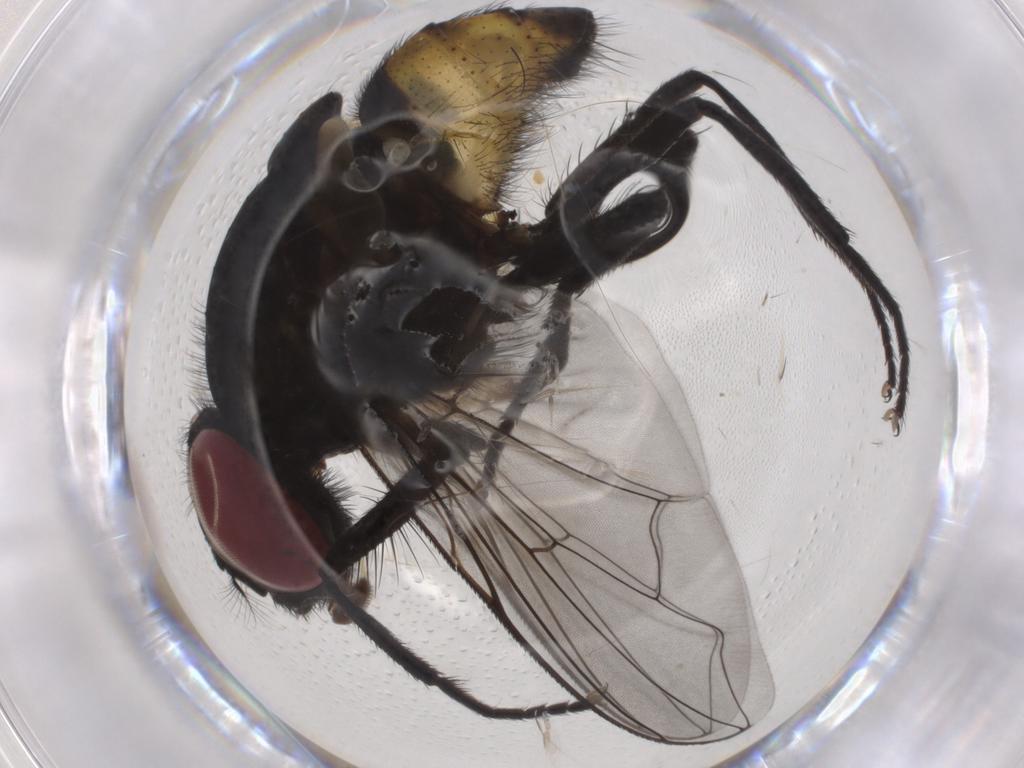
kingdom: Animalia
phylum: Arthropoda
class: Insecta
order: Diptera
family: Muscidae
